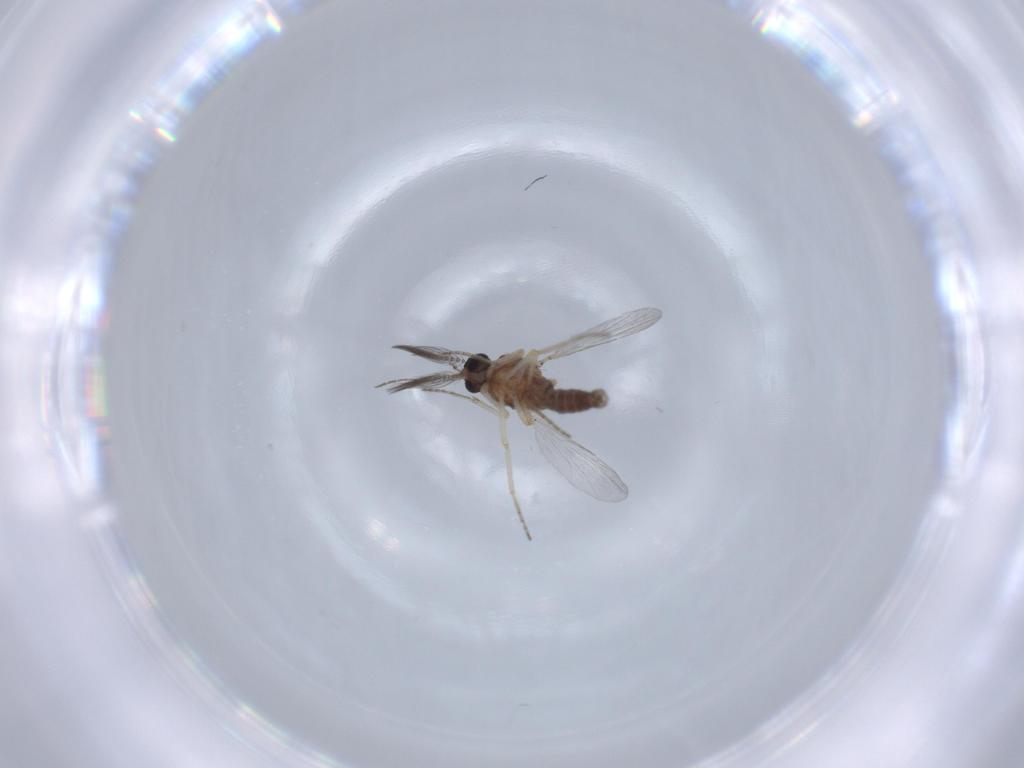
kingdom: Animalia
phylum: Arthropoda
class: Insecta
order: Diptera
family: Ceratopogonidae
